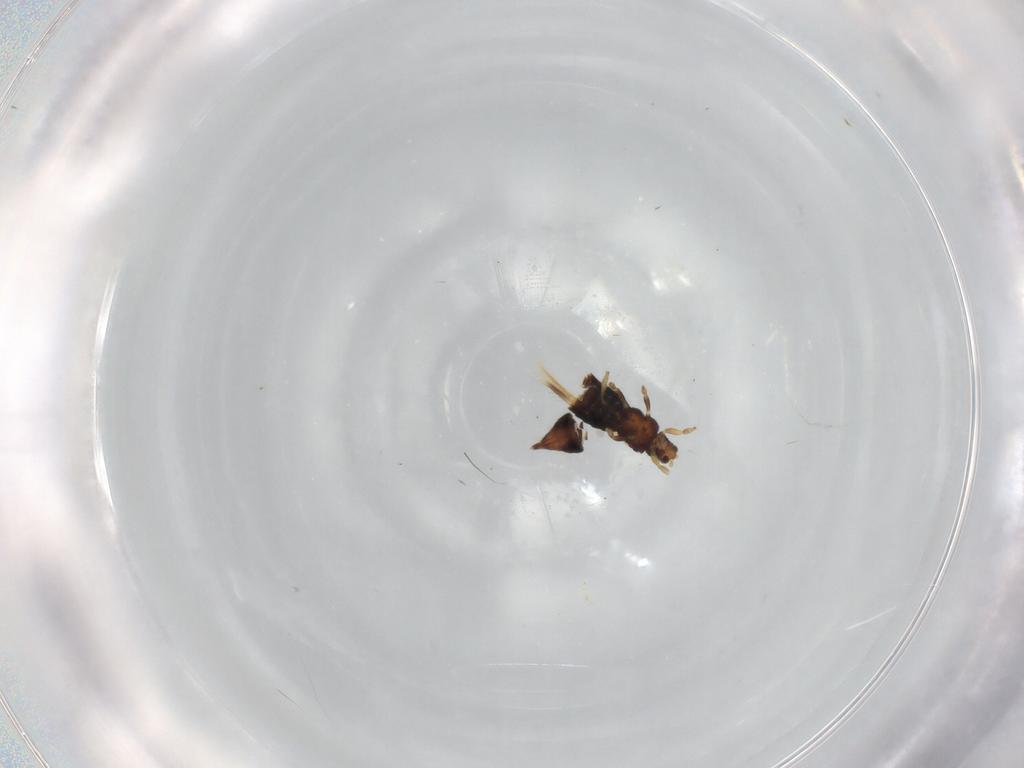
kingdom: Animalia
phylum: Arthropoda
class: Insecta
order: Thysanoptera
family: Thripidae
